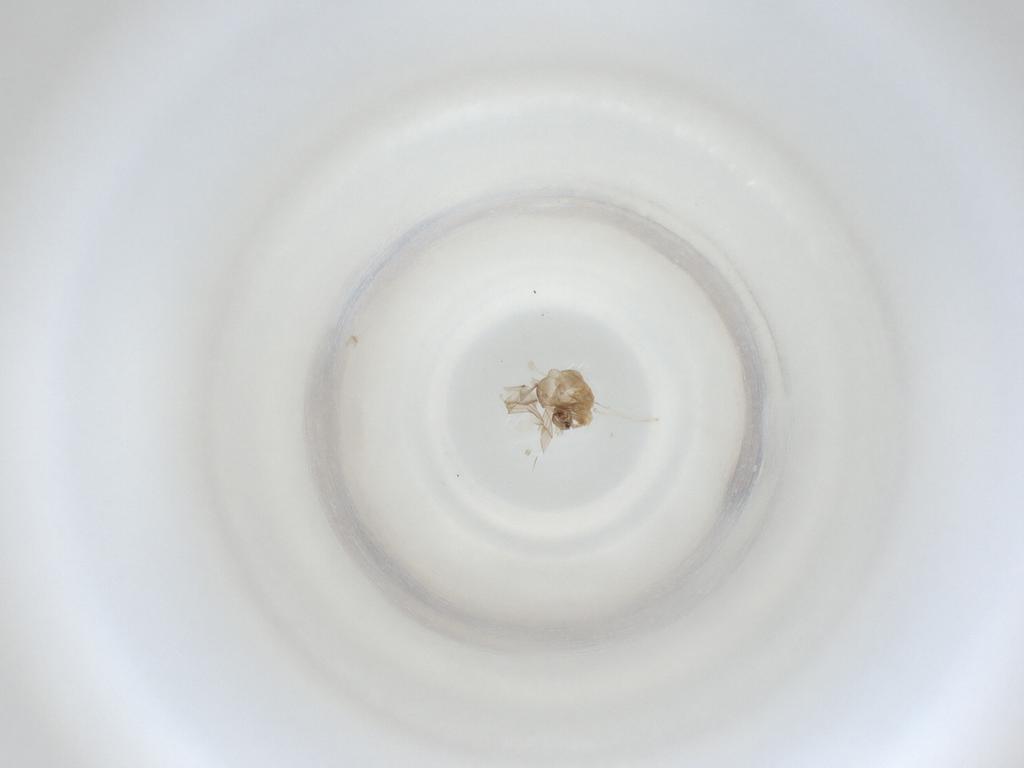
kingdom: Animalia
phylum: Arthropoda
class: Insecta
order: Diptera
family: Cecidomyiidae
